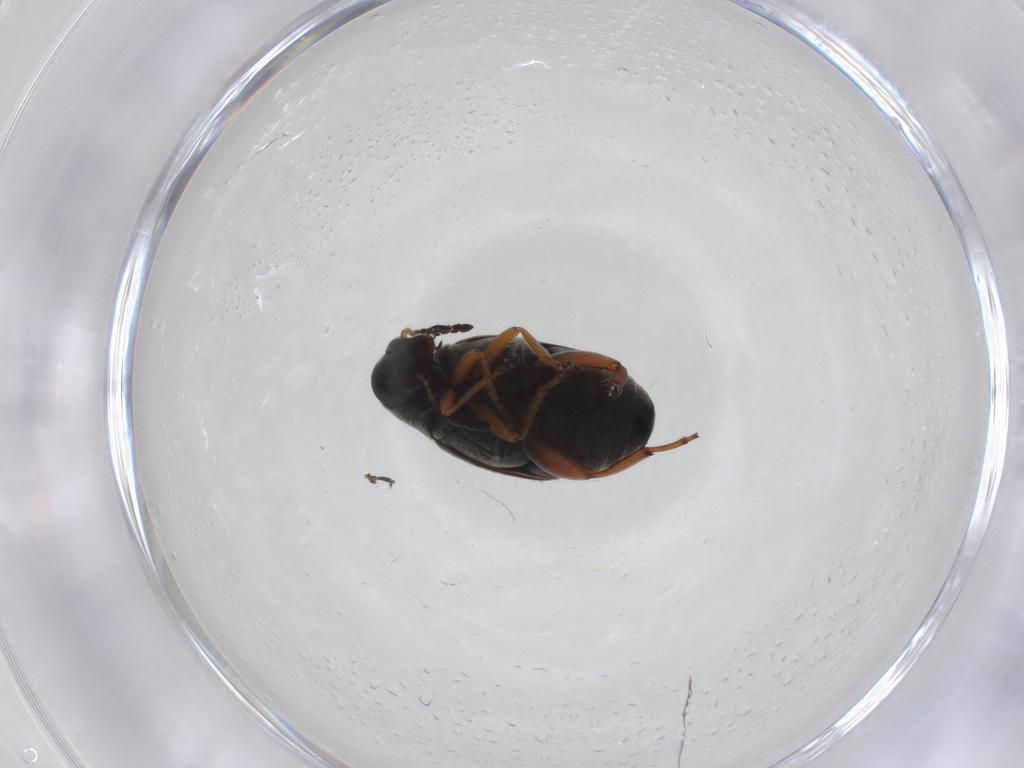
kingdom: Animalia
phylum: Arthropoda
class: Insecta
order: Coleoptera
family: Chrysomelidae
